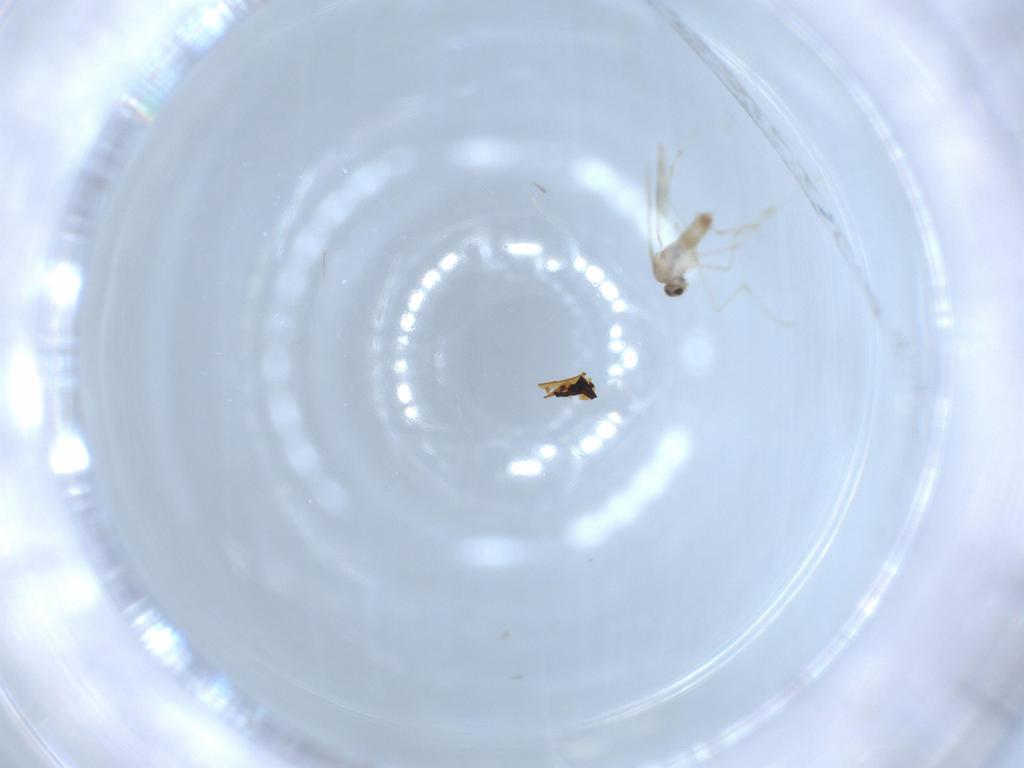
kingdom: Animalia
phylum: Arthropoda
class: Insecta
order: Diptera
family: Cecidomyiidae
